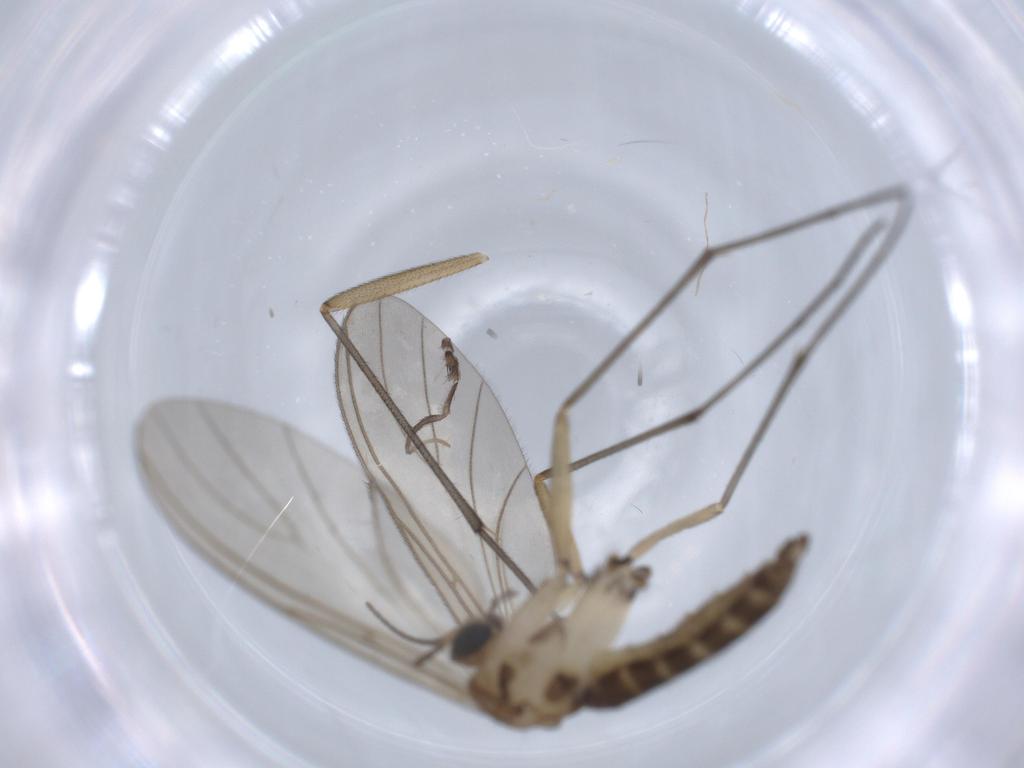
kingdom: Animalia
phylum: Arthropoda
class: Insecta
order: Diptera
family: Sciaridae
